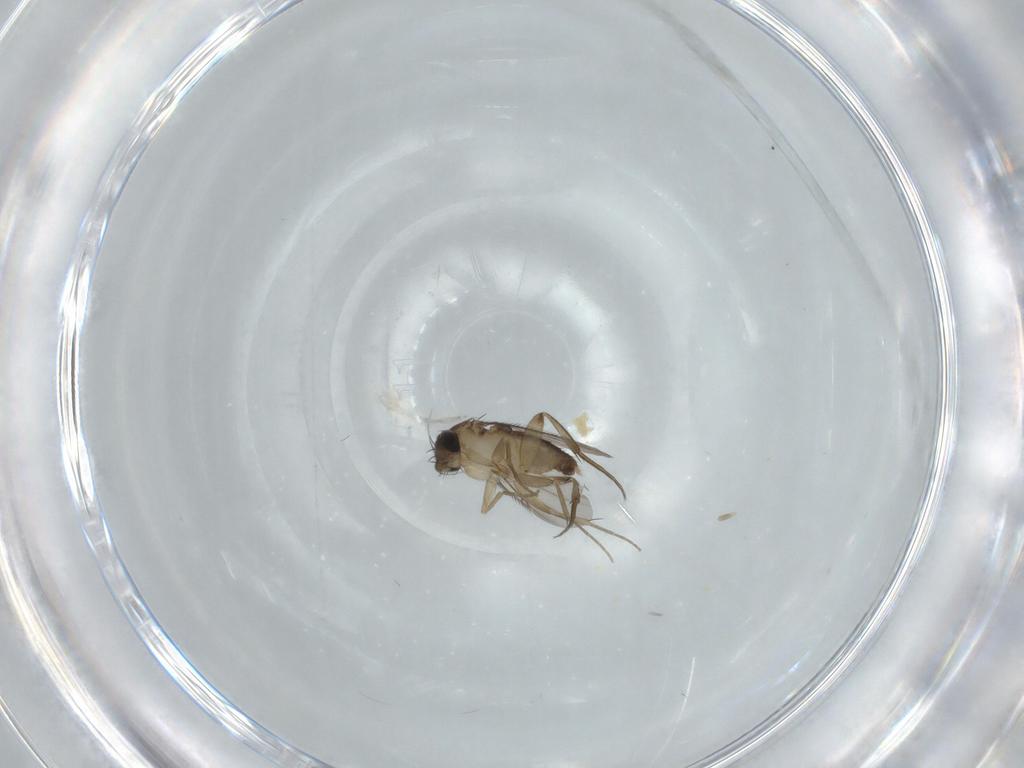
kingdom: Animalia
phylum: Arthropoda
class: Insecta
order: Diptera
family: Phoridae
